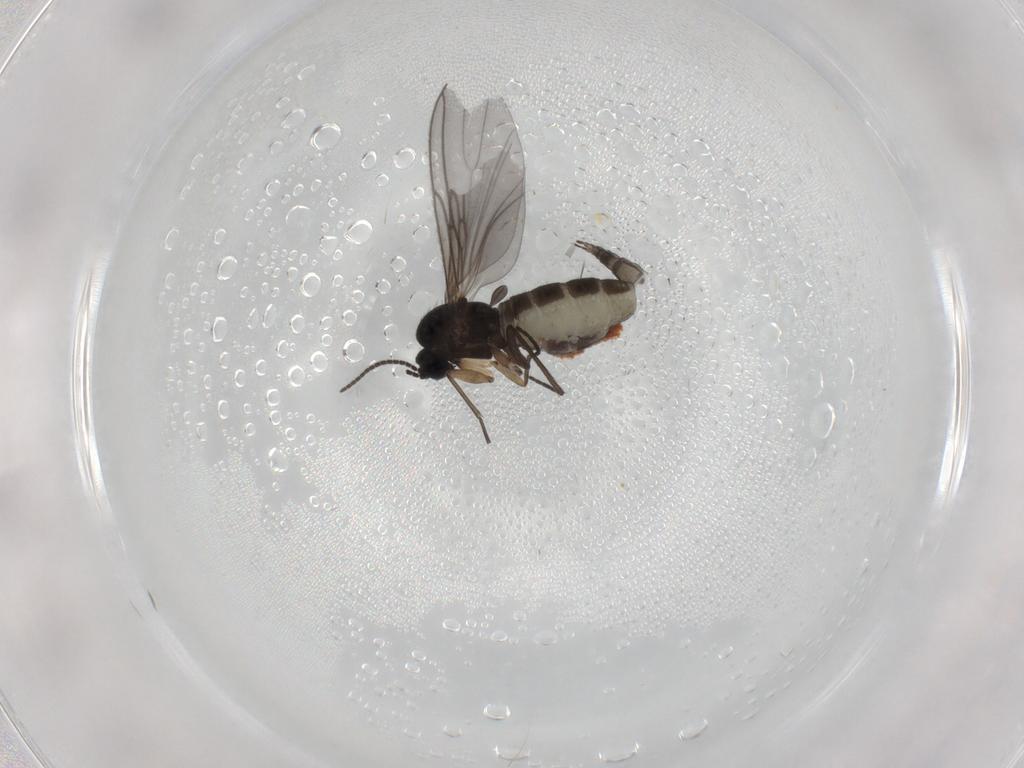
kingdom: Animalia
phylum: Arthropoda
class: Insecta
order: Diptera
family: Sciaridae
